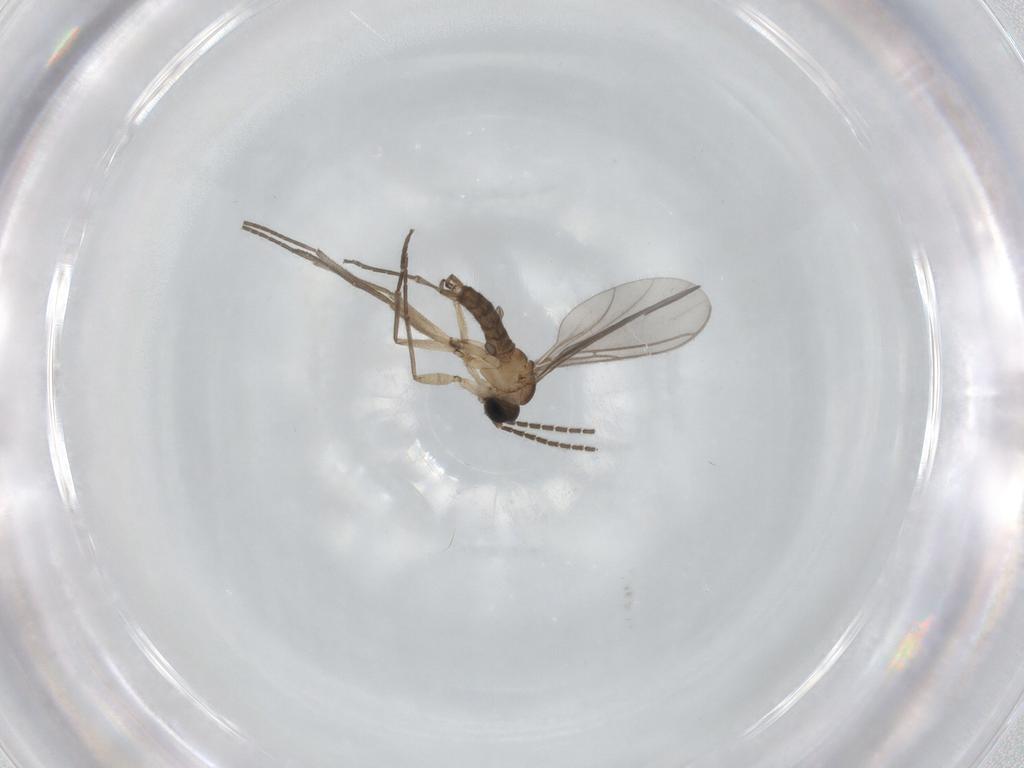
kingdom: Animalia
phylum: Arthropoda
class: Insecta
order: Diptera
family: Sciaridae
